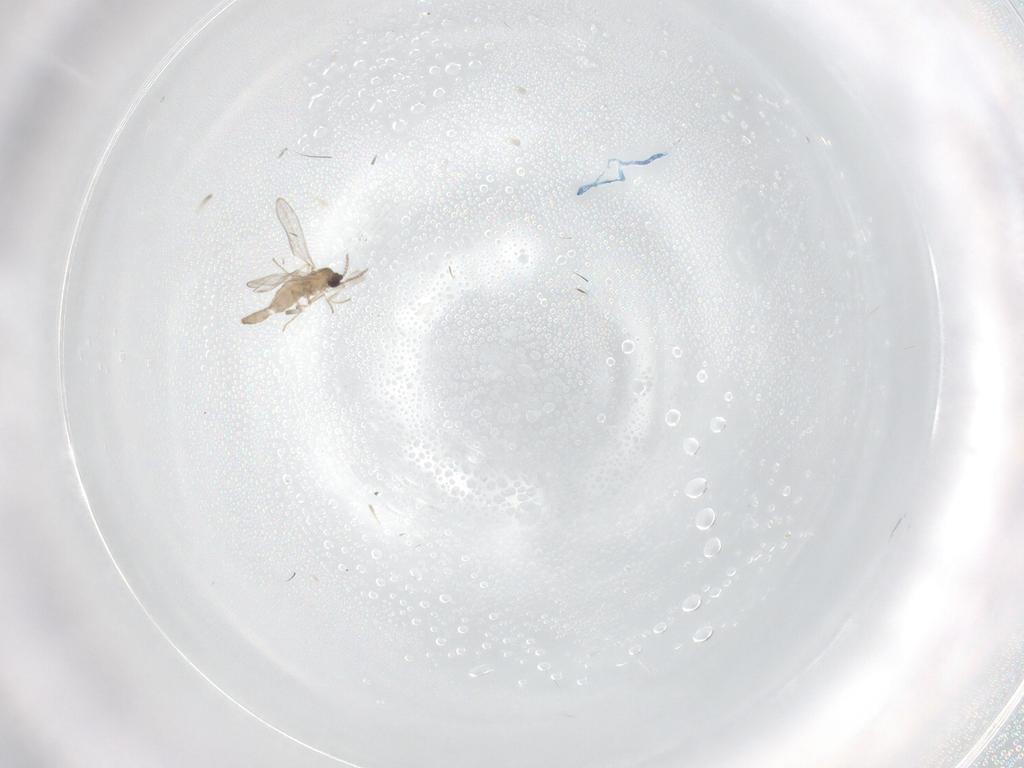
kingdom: Animalia
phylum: Arthropoda
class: Insecta
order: Diptera
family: Cecidomyiidae
